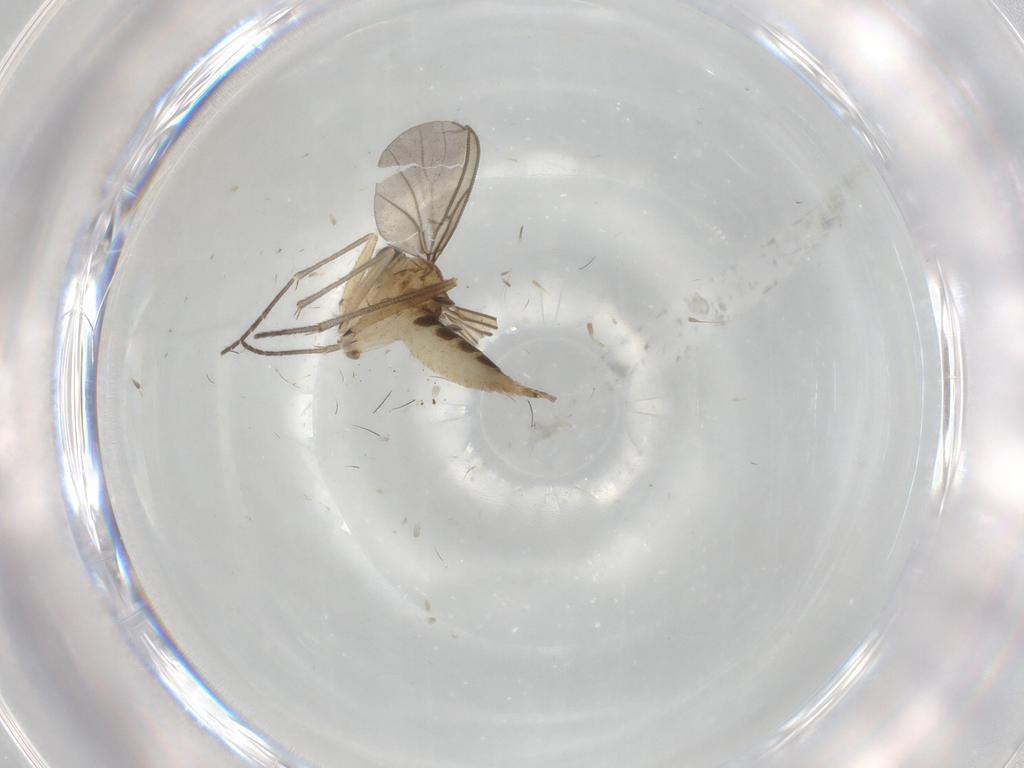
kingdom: Animalia
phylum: Arthropoda
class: Insecta
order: Diptera
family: Sciaridae
